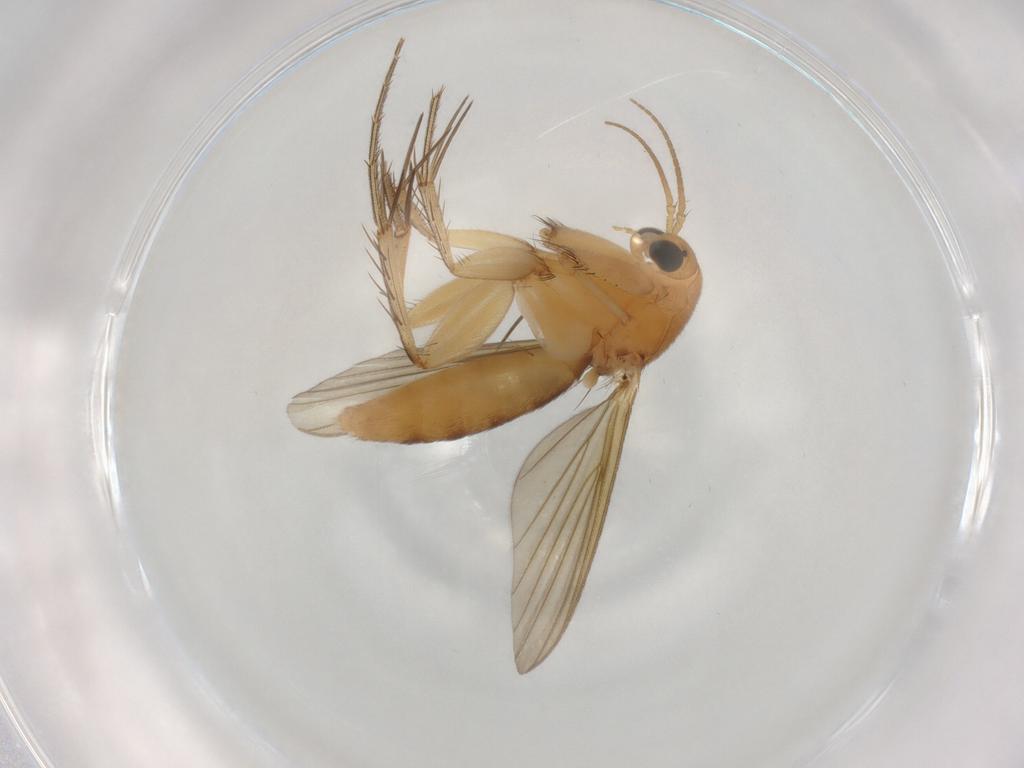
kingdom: Animalia
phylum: Arthropoda
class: Insecta
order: Diptera
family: Mycetophilidae
